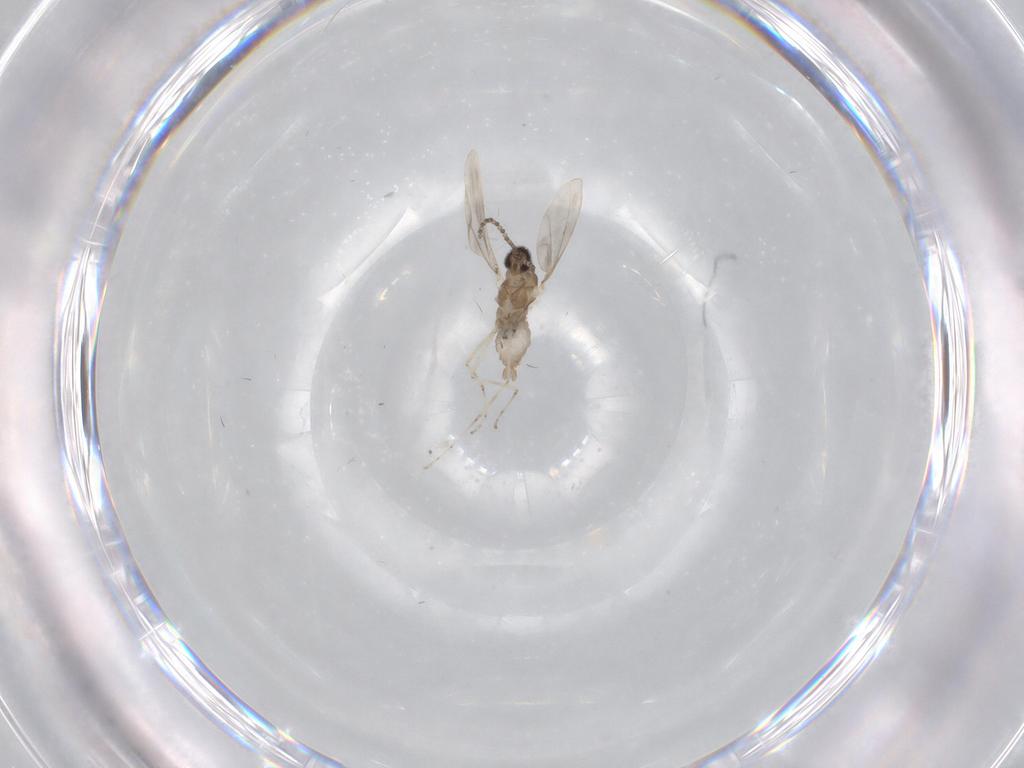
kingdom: Animalia
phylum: Arthropoda
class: Insecta
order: Diptera
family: Cecidomyiidae
